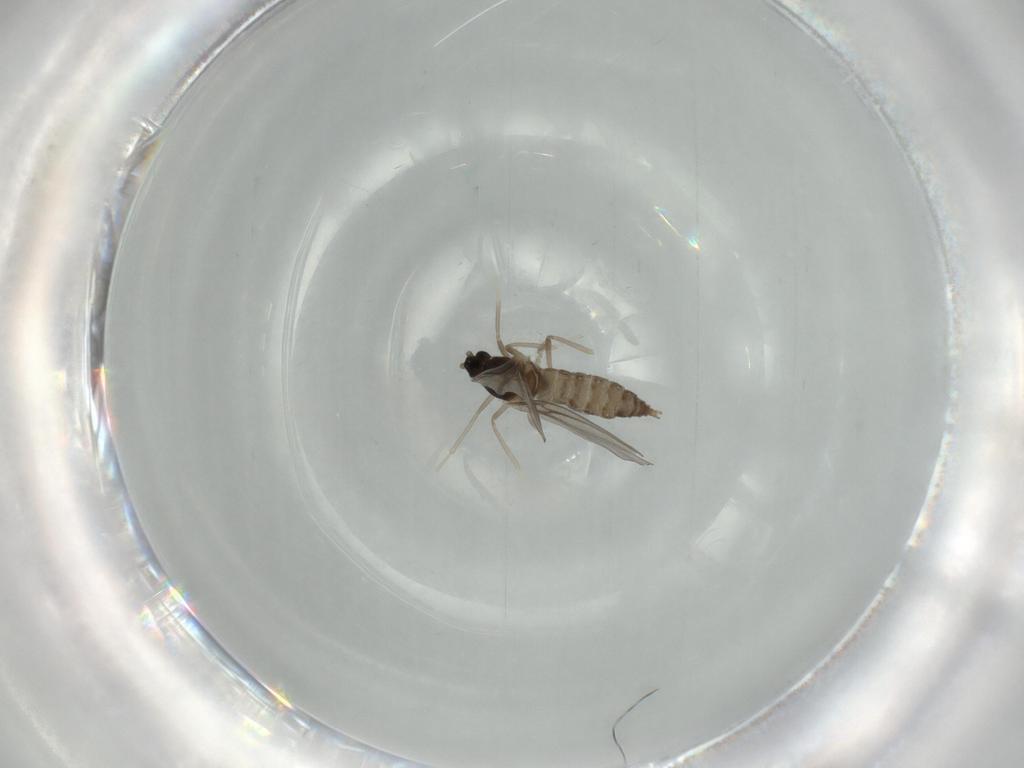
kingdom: Animalia
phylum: Arthropoda
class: Insecta
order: Diptera
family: Cecidomyiidae
